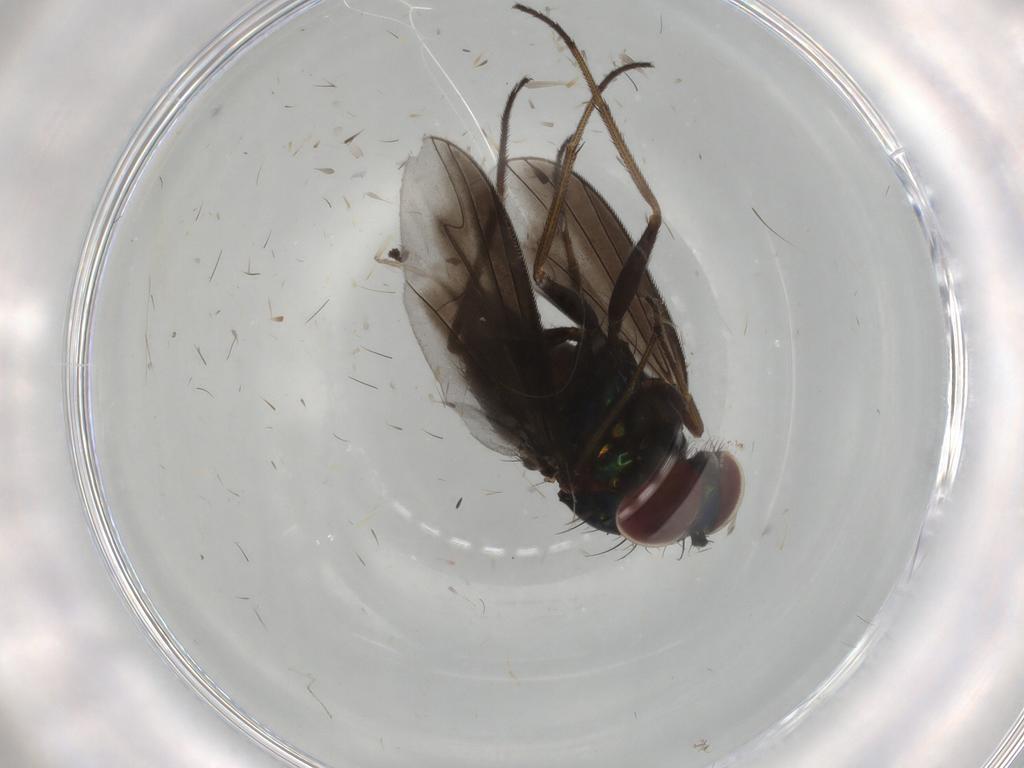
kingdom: Animalia
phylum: Arthropoda
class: Insecta
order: Diptera
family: Dolichopodidae
